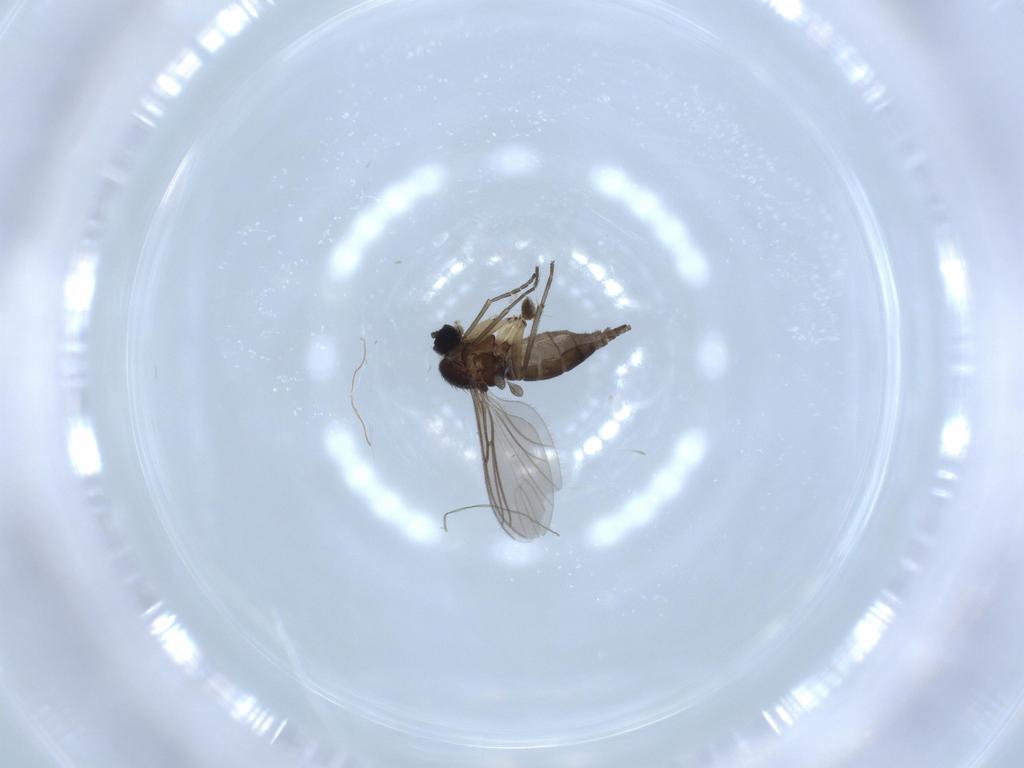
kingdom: Animalia
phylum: Arthropoda
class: Insecta
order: Diptera
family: Sciaridae
